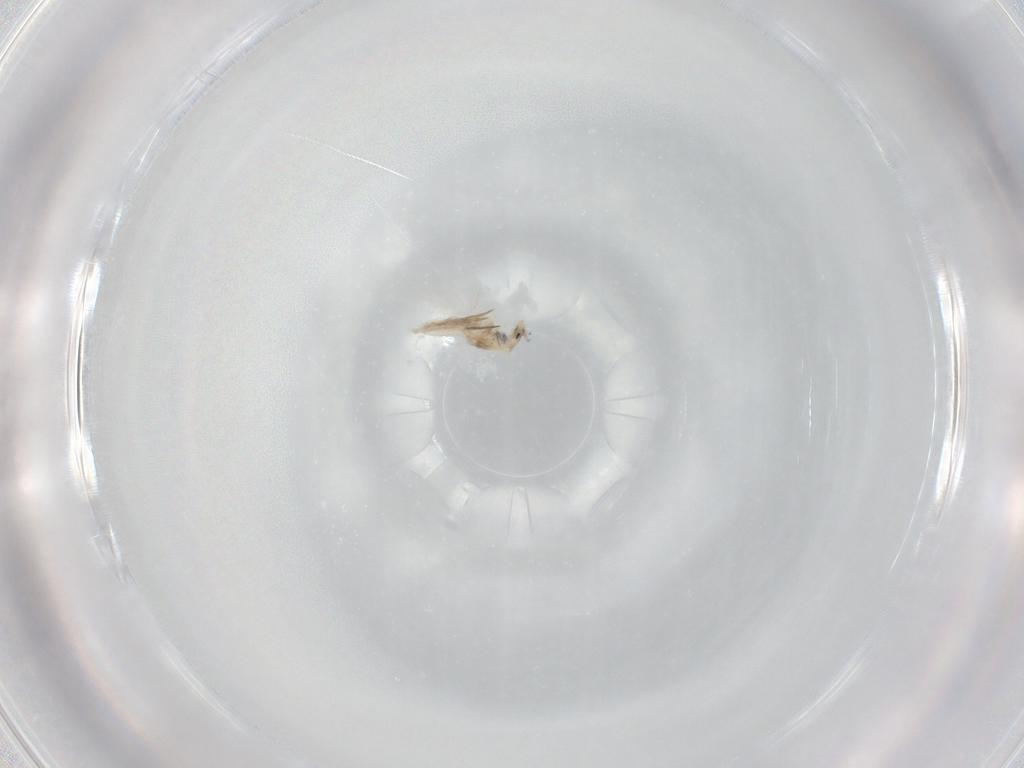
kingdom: Animalia
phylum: Arthropoda
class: Collembola
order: Entomobryomorpha
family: Entomobryidae
